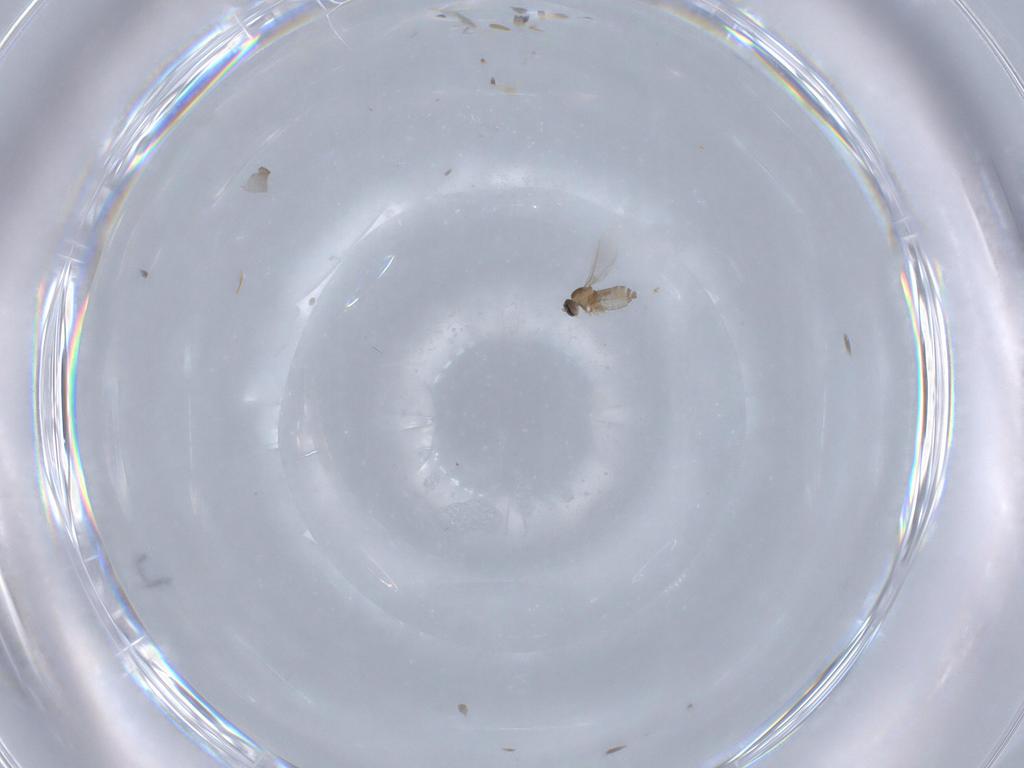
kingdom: Animalia
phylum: Arthropoda
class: Insecta
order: Diptera
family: Cecidomyiidae
